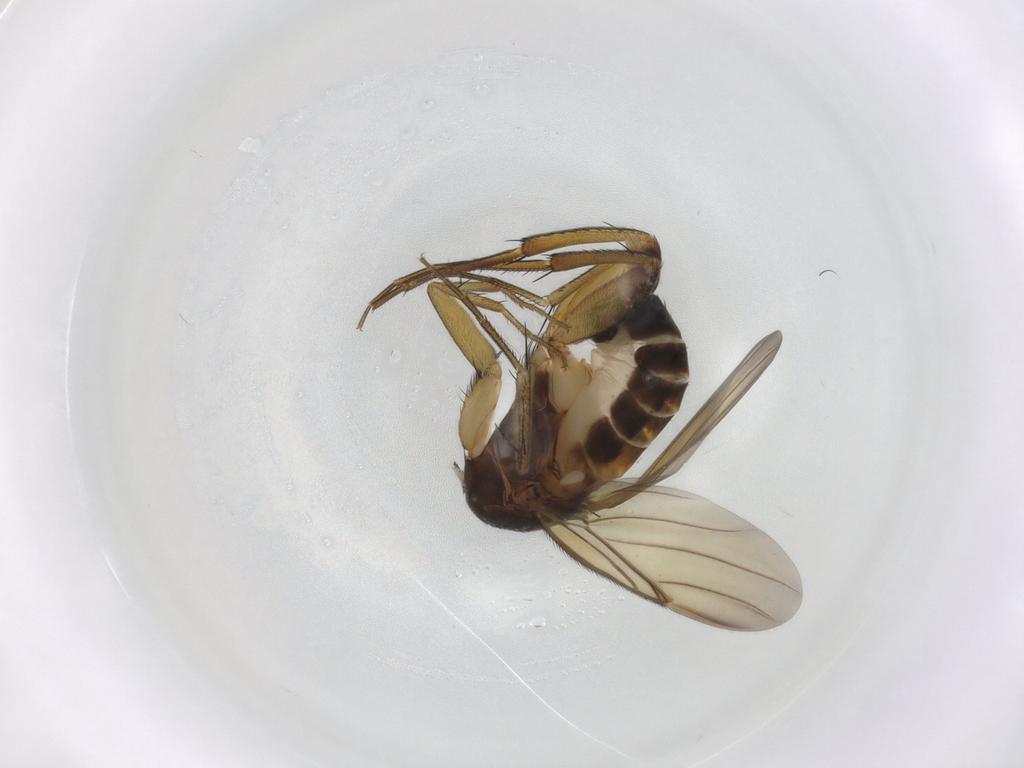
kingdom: Animalia
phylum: Arthropoda
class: Insecta
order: Diptera
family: Phoridae
